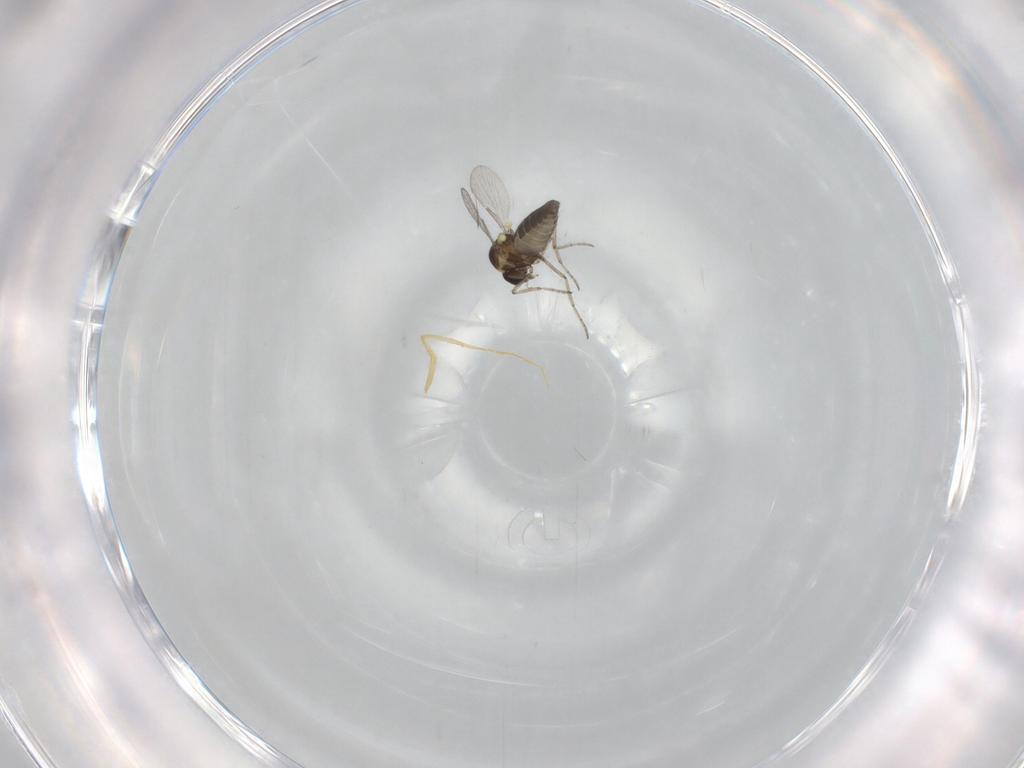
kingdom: Animalia
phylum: Arthropoda
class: Insecta
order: Diptera
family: Ceratopogonidae
